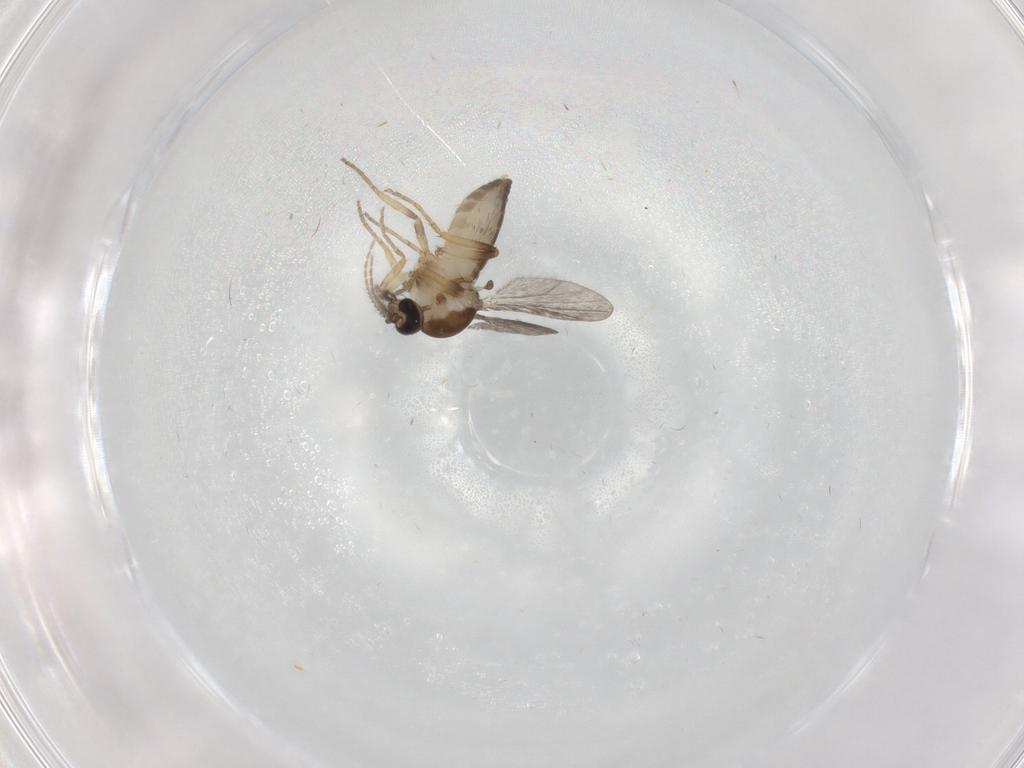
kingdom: Animalia
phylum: Arthropoda
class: Insecta
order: Diptera
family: Ceratopogonidae
